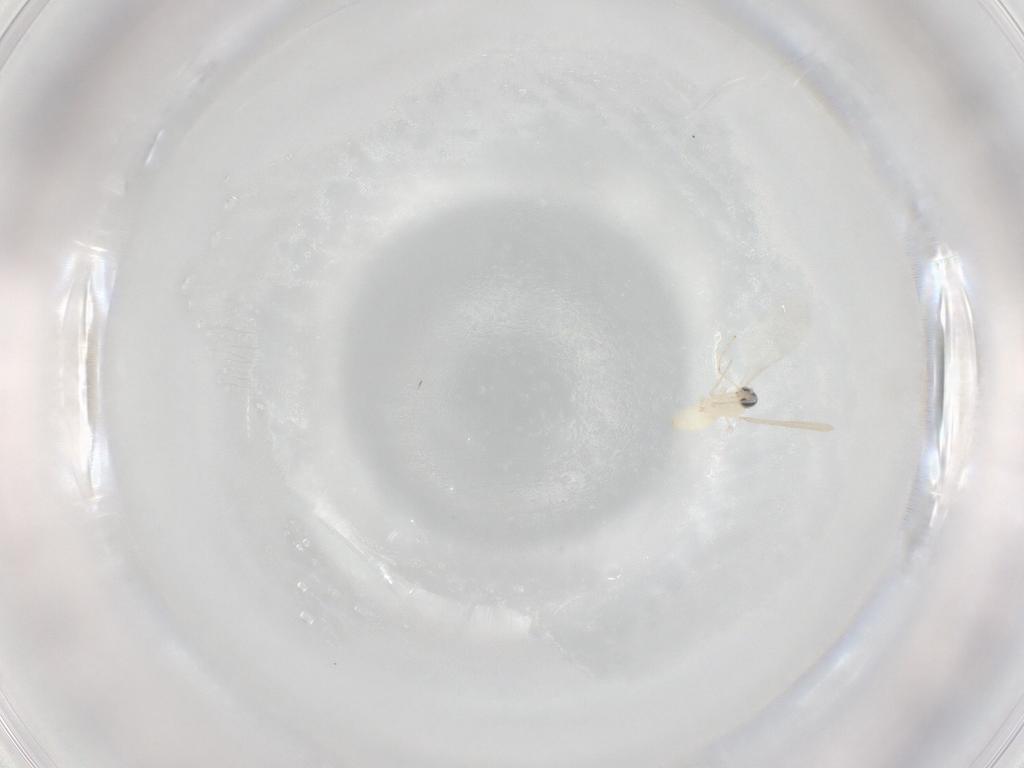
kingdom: Animalia
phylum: Arthropoda
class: Insecta
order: Diptera
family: Cecidomyiidae
